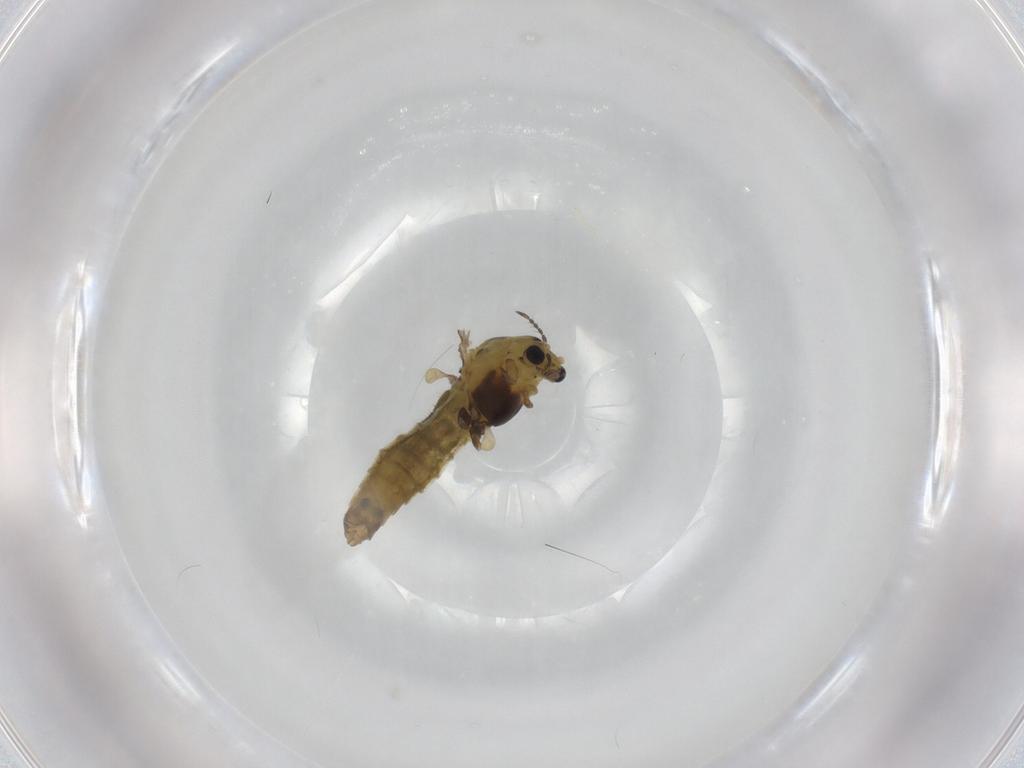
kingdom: Animalia
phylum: Arthropoda
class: Insecta
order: Diptera
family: Chironomidae
